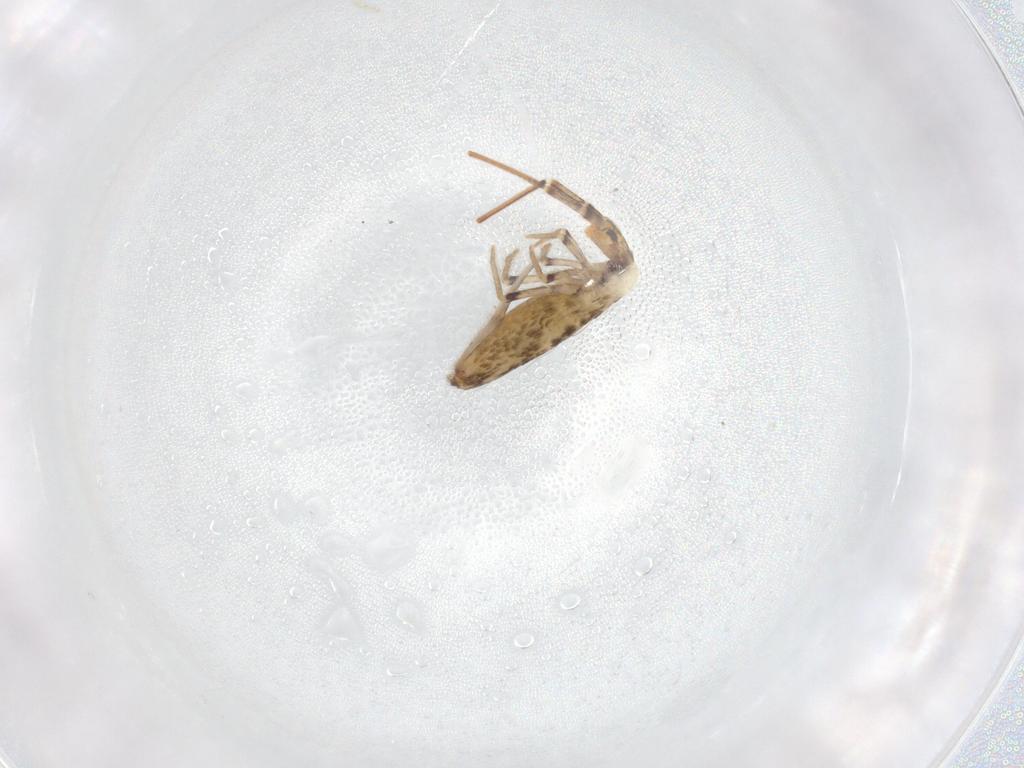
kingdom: Animalia
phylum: Arthropoda
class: Collembola
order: Entomobryomorpha
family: Entomobryidae
